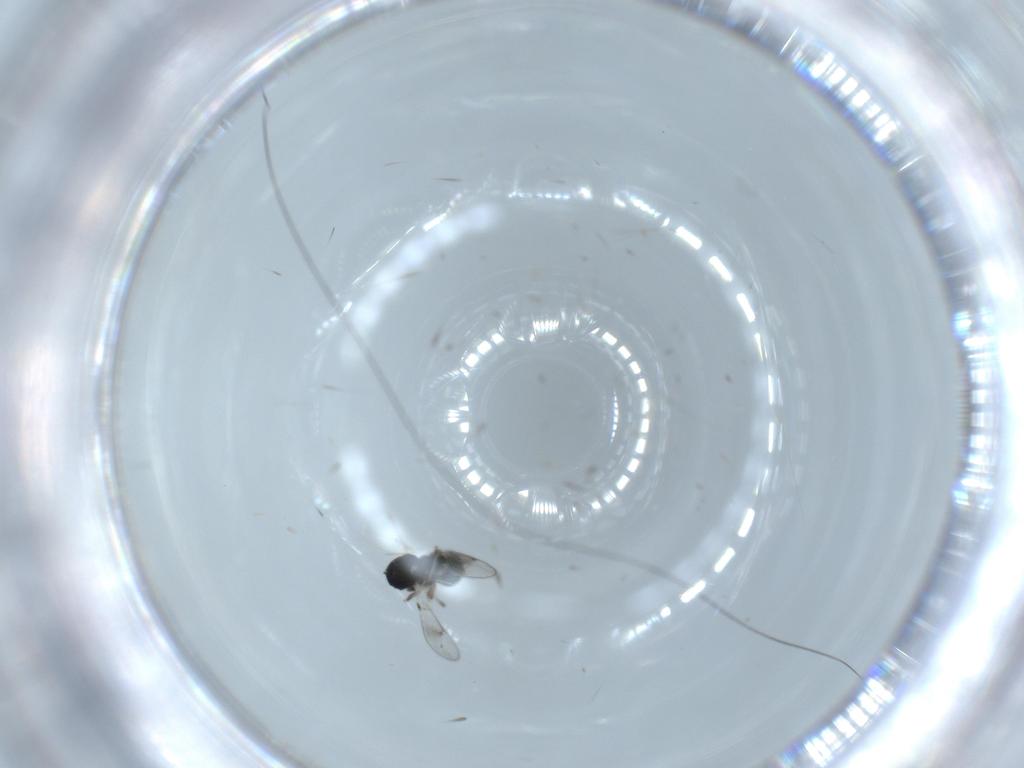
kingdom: Animalia
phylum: Arthropoda
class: Insecta
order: Hymenoptera
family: Eulophidae
